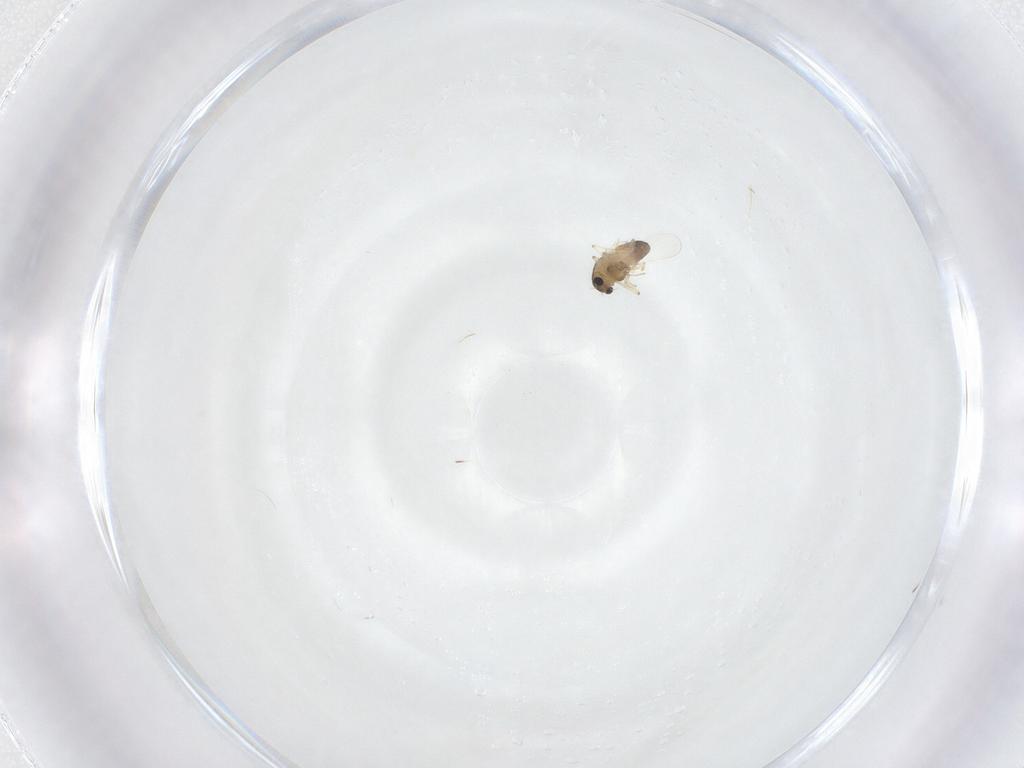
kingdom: Animalia
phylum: Arthropoda
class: Insecta
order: Diptera
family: Chironomidae
